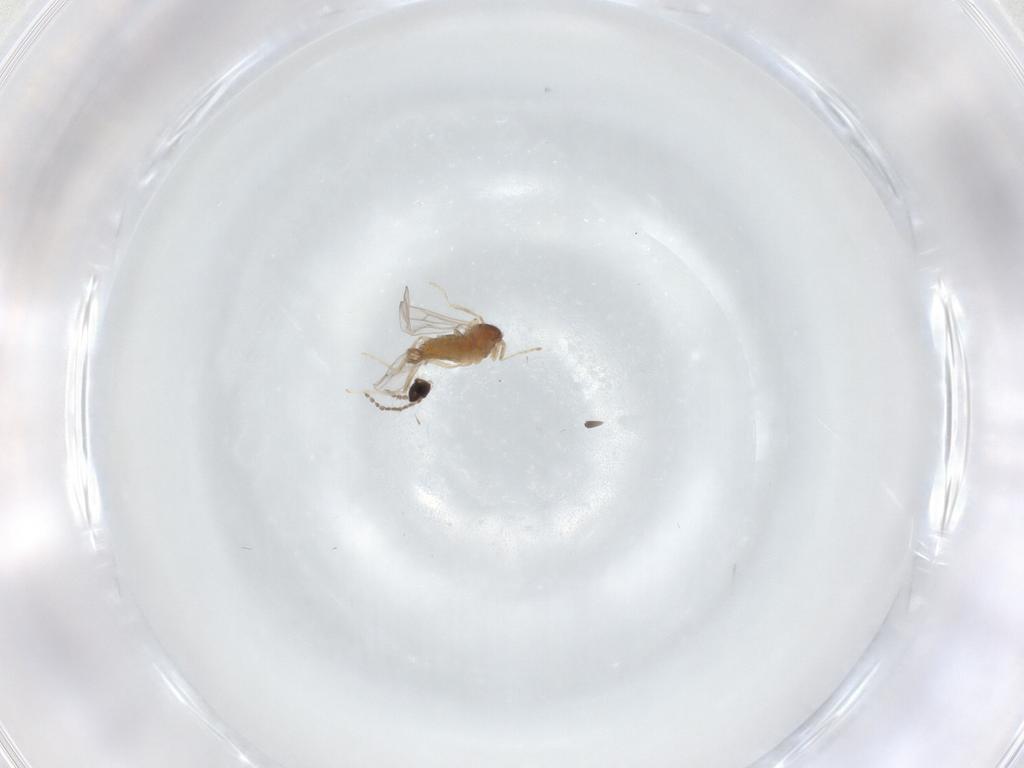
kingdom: Animalia
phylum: Arthropoda
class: Insecta
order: Diptera
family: Cecidomyiidae
